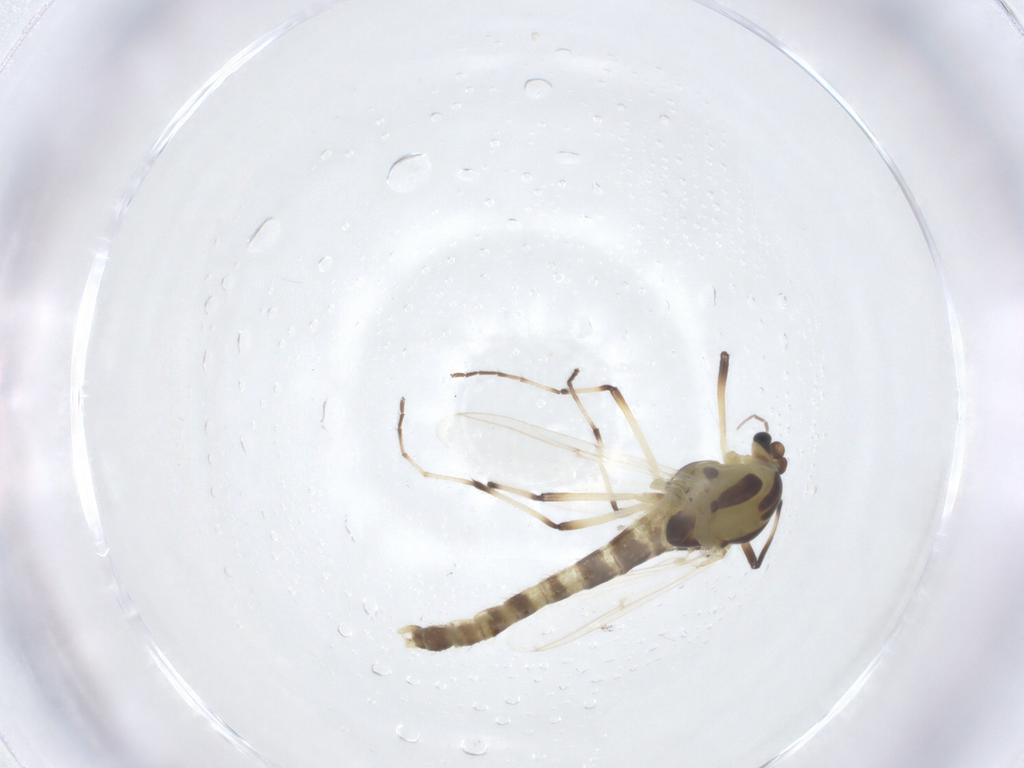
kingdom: Animalia
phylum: Arthropoda
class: Insecta
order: Diptera
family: Chironomidae
